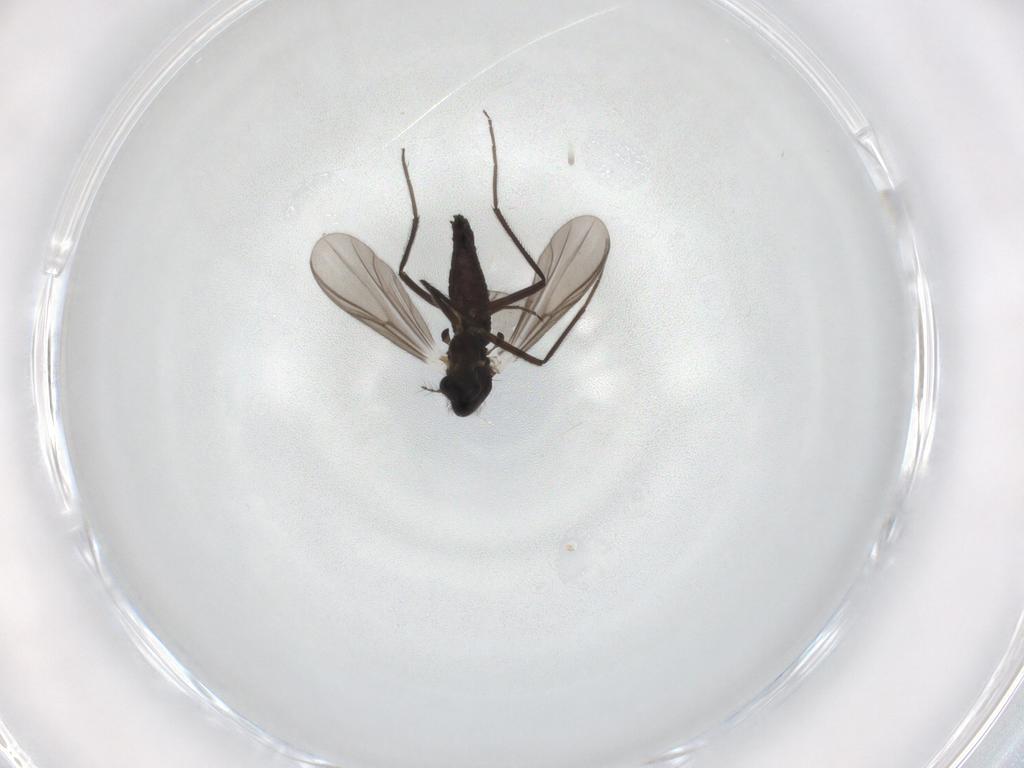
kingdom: Animalia
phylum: Arthropoda
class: Insecta
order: Diptera
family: Chironomidae
